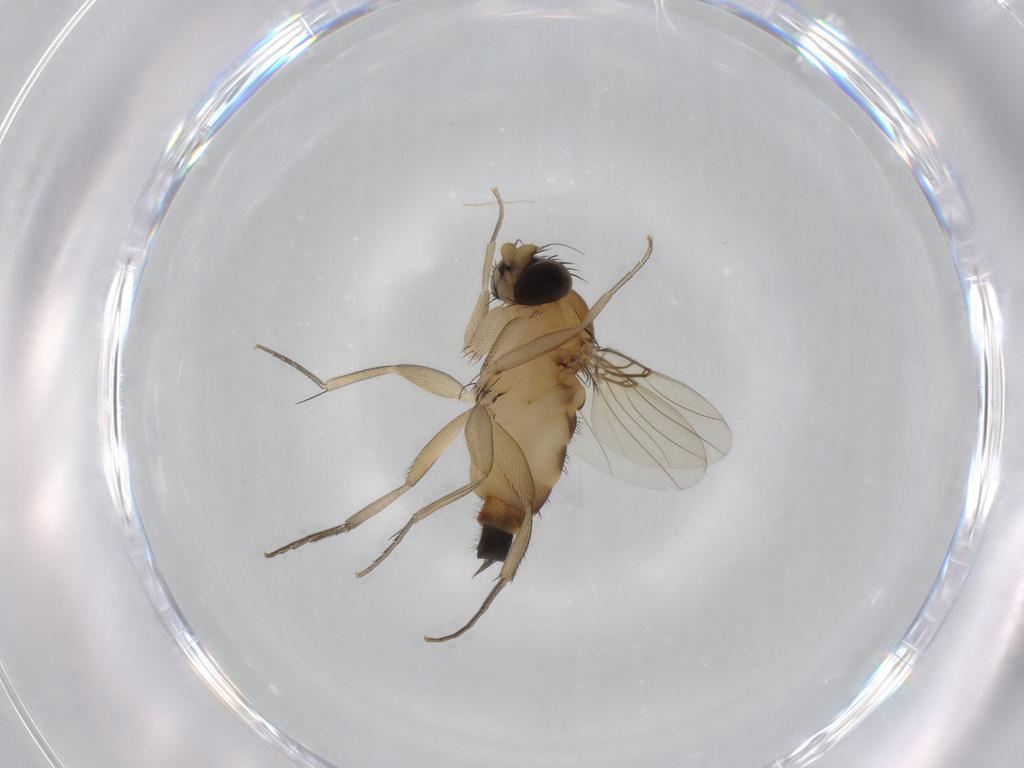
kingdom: Animalia
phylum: Arthropoda
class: Insecta
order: Diptera
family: Phoridae
